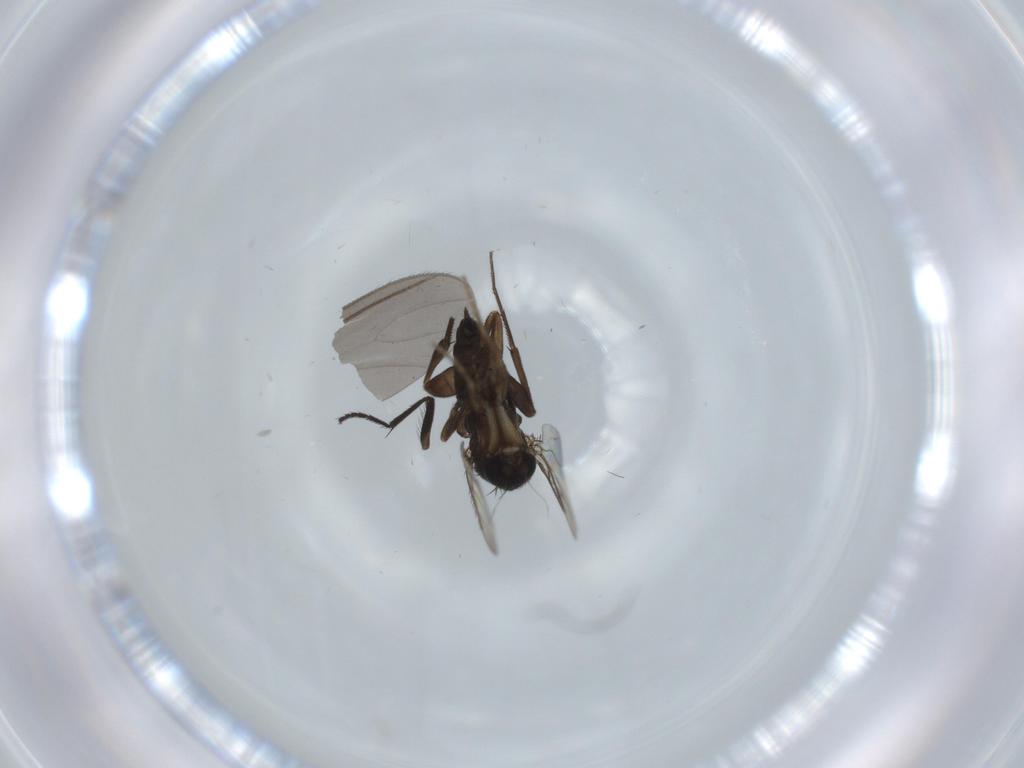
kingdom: Animalia
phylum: Arthropoda
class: Insecta
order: Diptera
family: Phoridae
